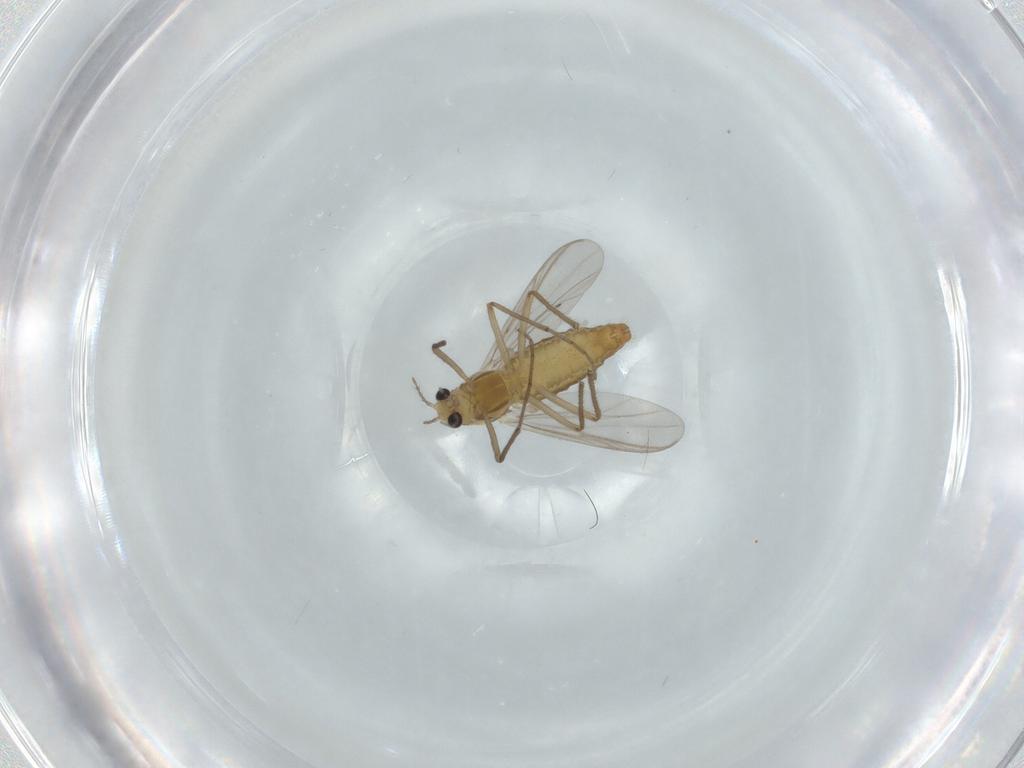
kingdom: Animalia
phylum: Arthropoda
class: Insecta
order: Diptera
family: Chironomidae
